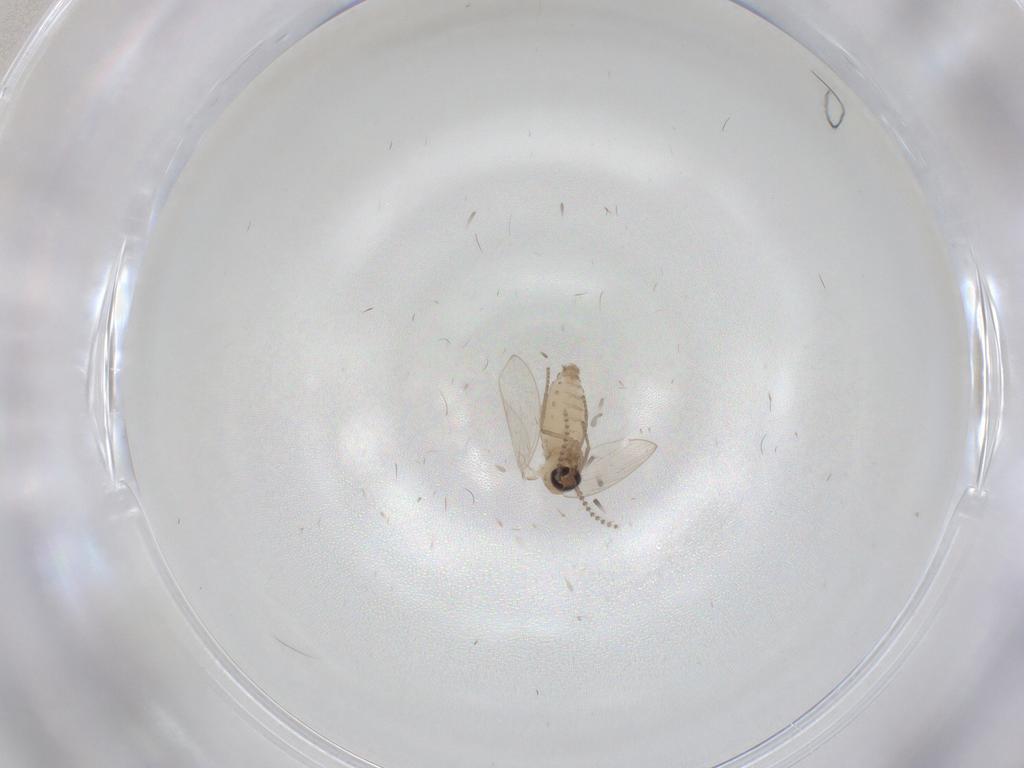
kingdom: Animalia
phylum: Arthropoda
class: Insecta
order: Diptera
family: Psychodidae
